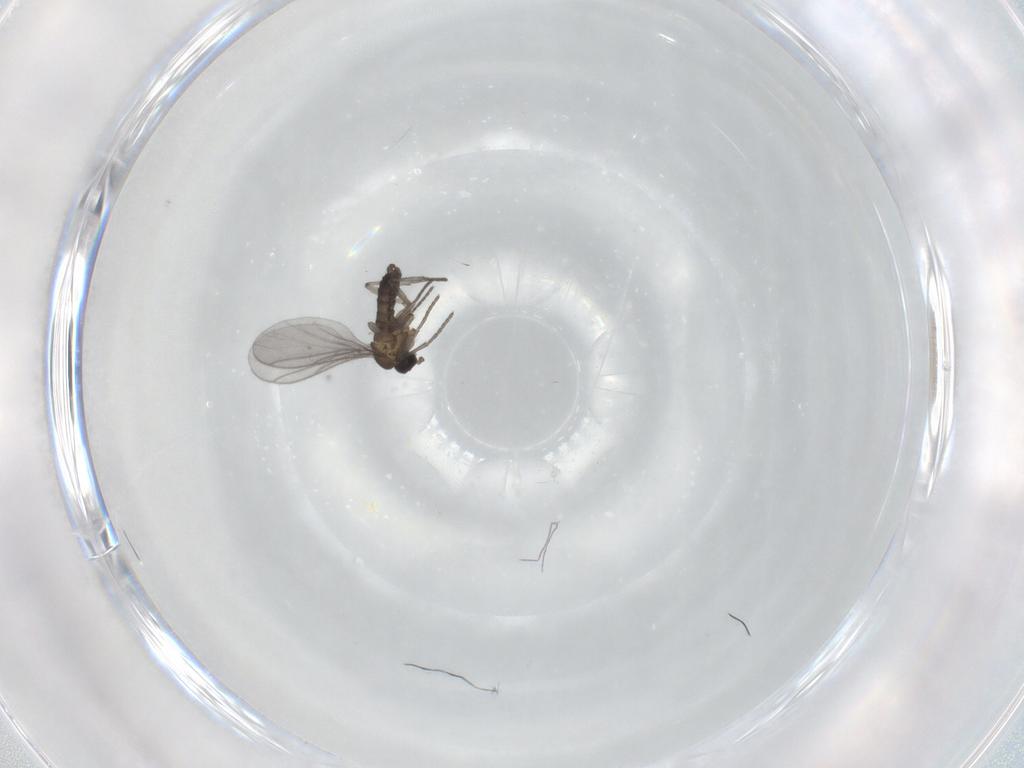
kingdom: Animalia
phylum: Arthropoda
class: Insecta
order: Diptera
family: Sciaridae
